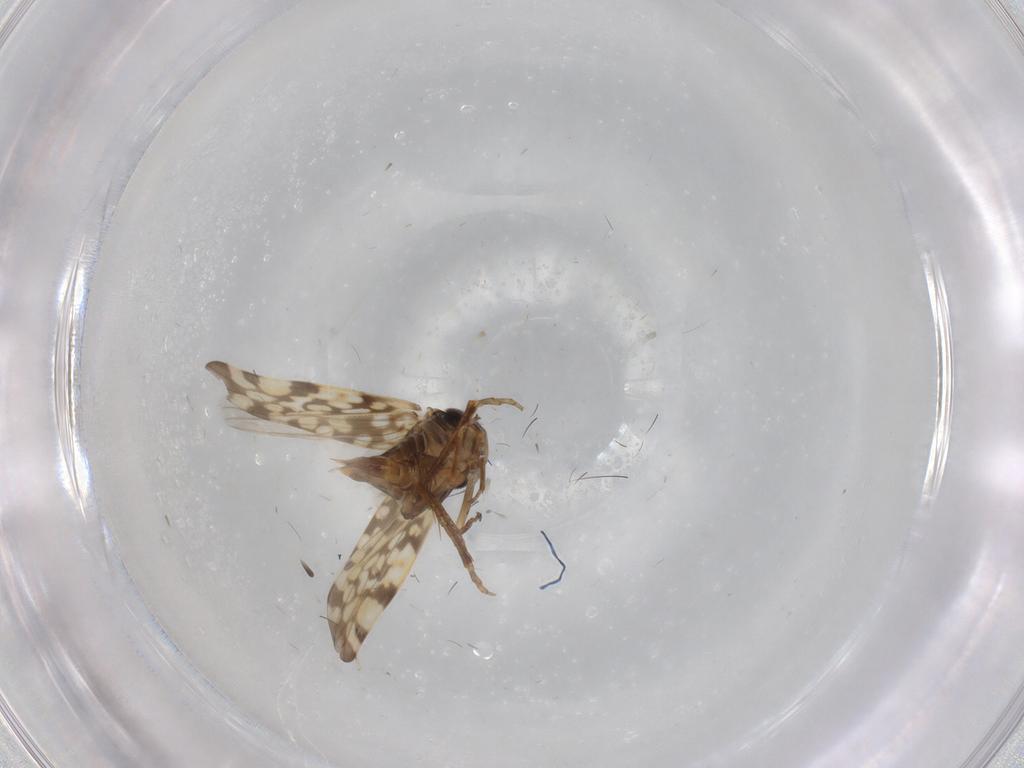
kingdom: Animalia
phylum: Arthropoda
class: Insecta
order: Hemiptera
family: Cicadellidae
